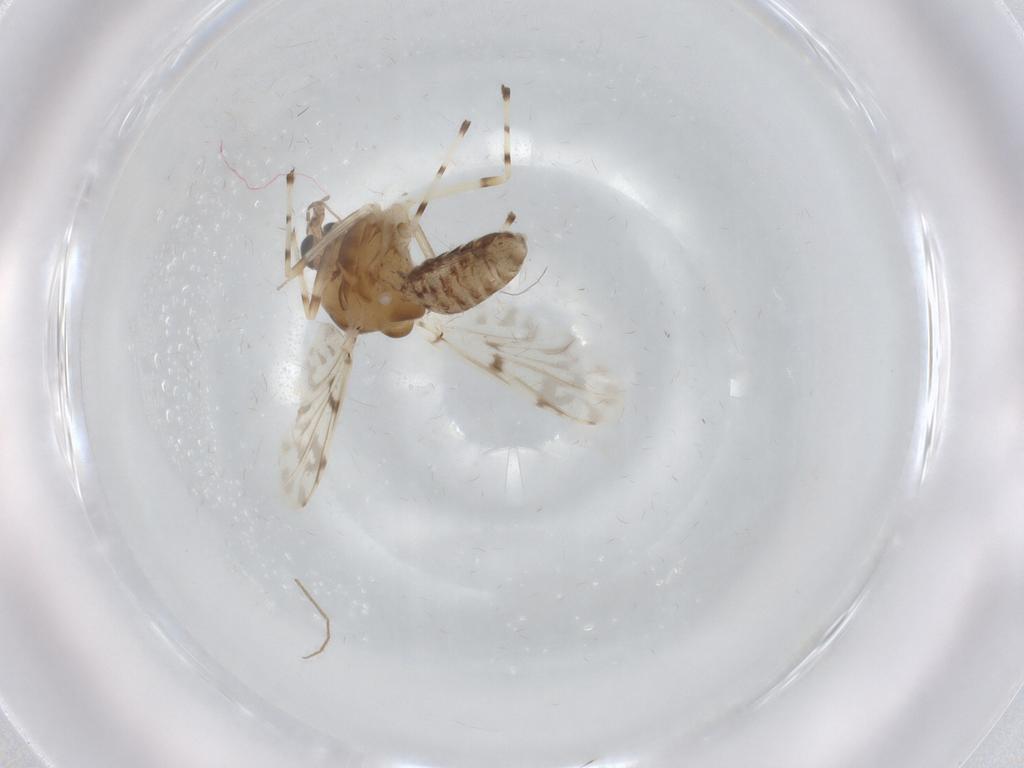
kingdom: Animalia
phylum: Arthropoda
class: Insecta
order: Diptera
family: Chironomidae
